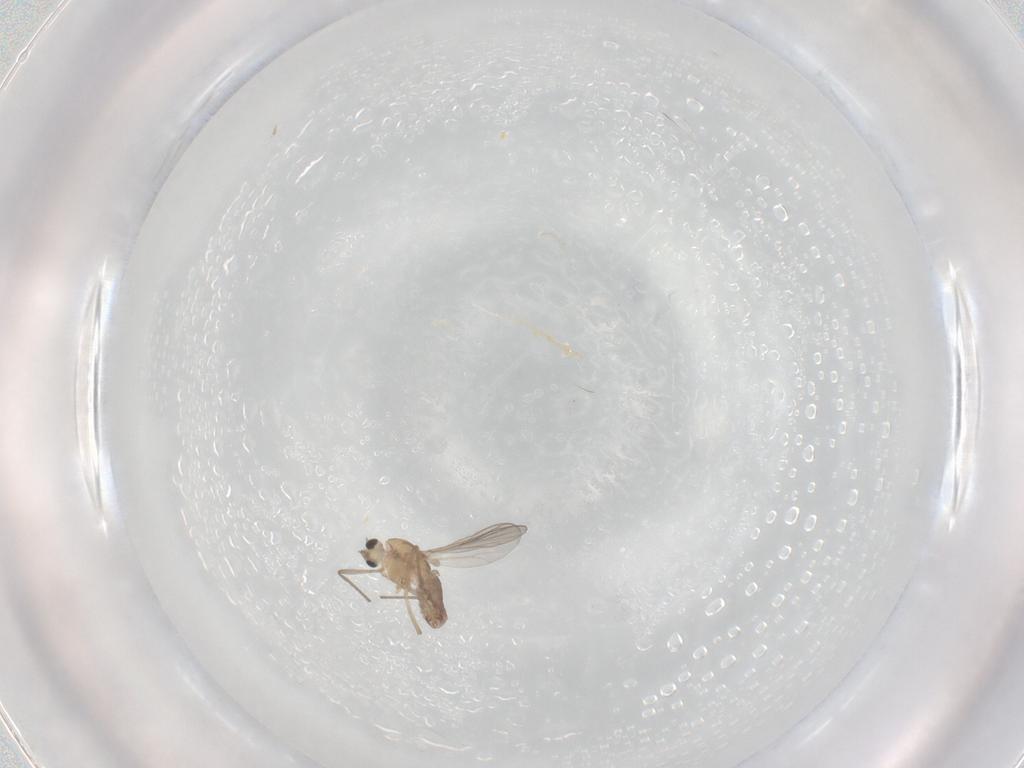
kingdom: Animalia
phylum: Arthropoda
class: Insecta
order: Diptera
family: Chironomidae
